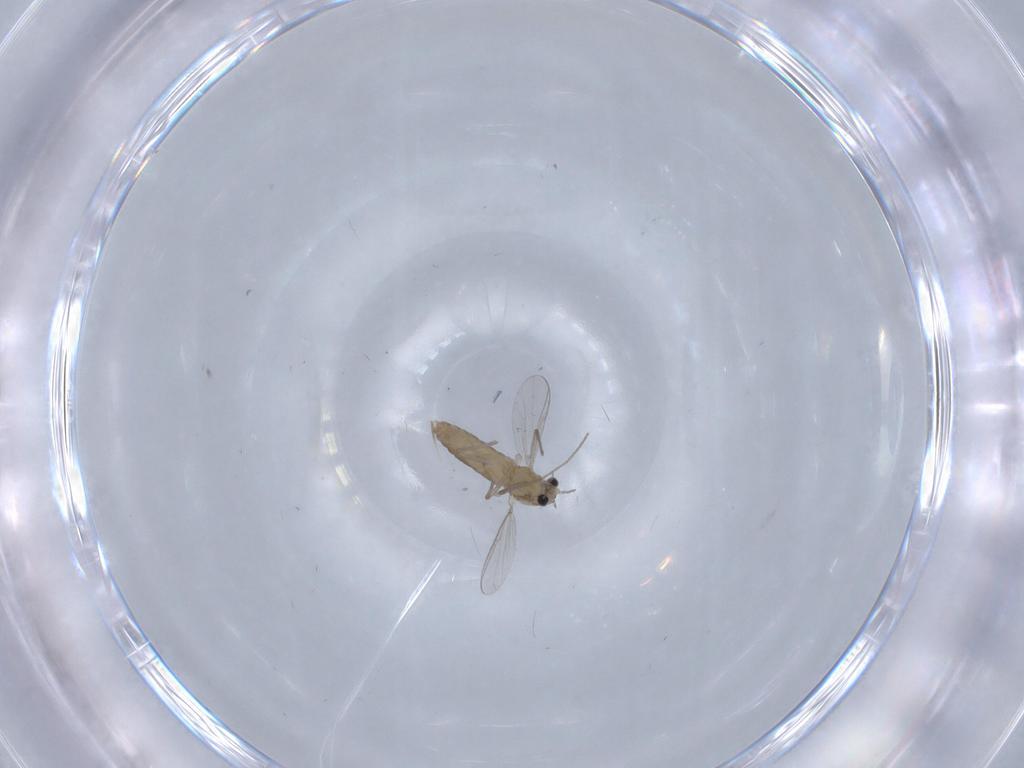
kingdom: Animalia
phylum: Arthropoda
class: Insecta
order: Diptera
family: Chironomidae
